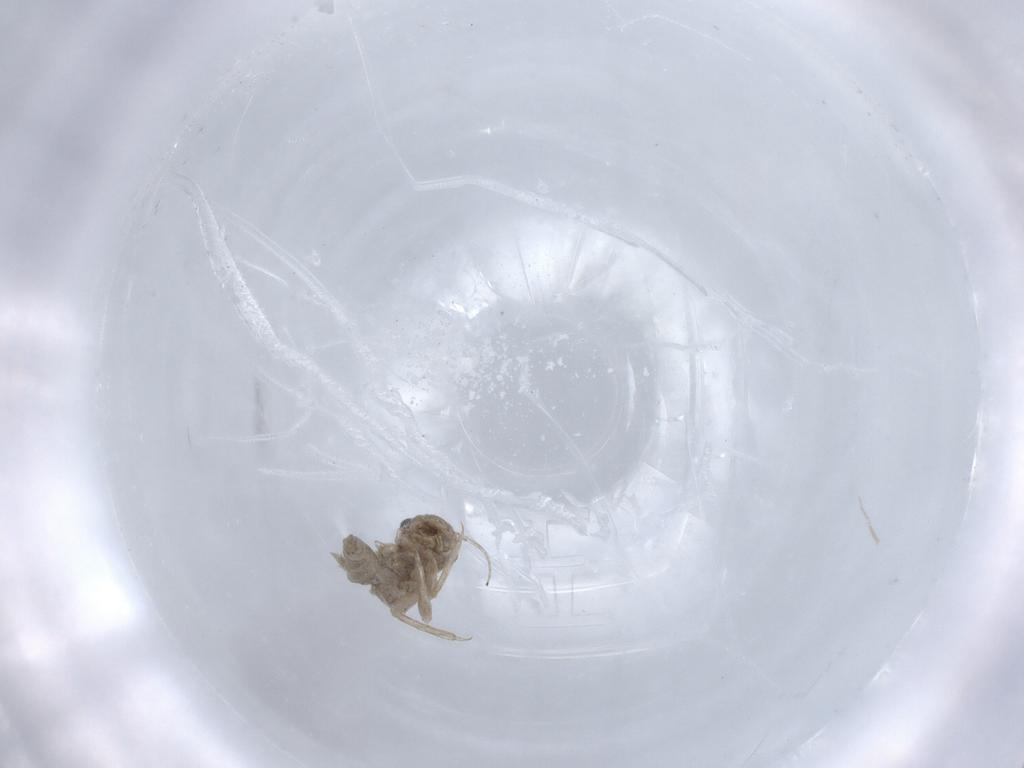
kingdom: Animalia
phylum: Arthropoda
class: Insecta
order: Ephemeroptera
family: Caenidae
